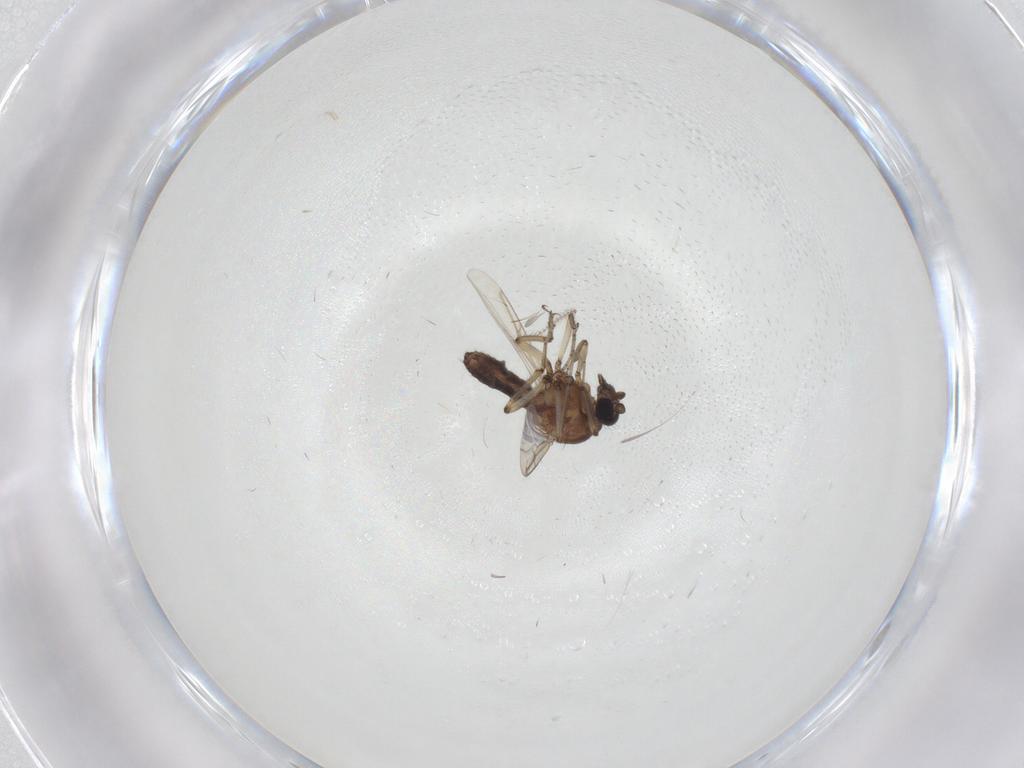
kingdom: Animalia
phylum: Arthropoda
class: Insecta
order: Diptera
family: Ceratopogonidae
